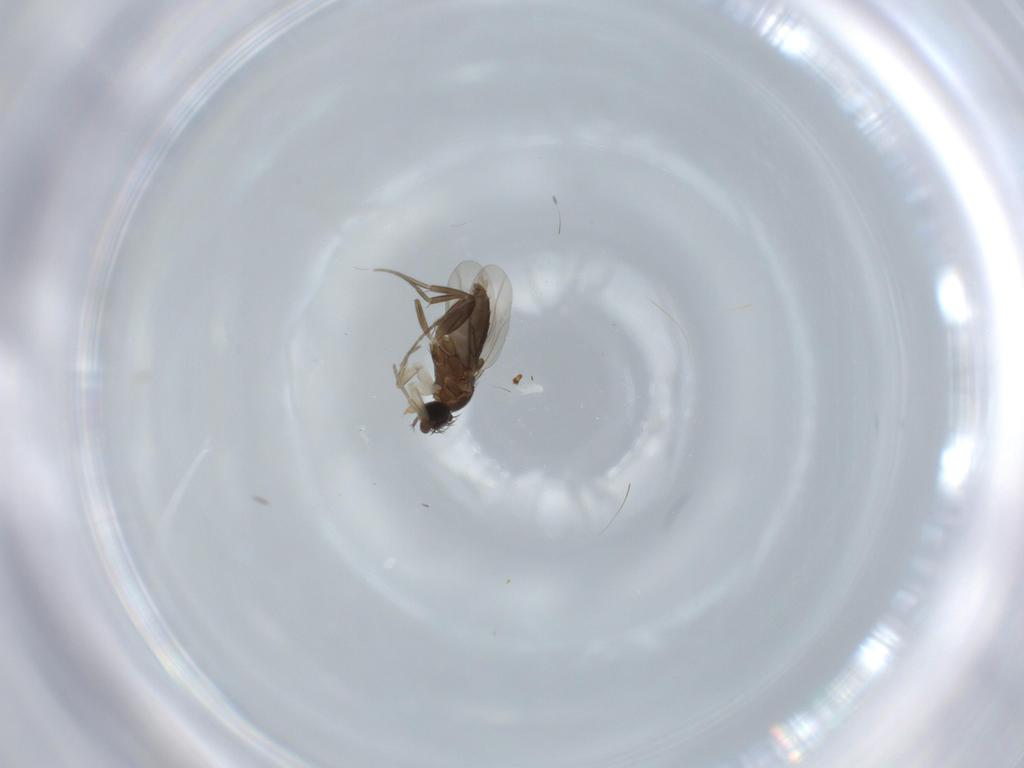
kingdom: Animalia
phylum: Arthropoda
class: Insecta
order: Diptera
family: Phoridae
